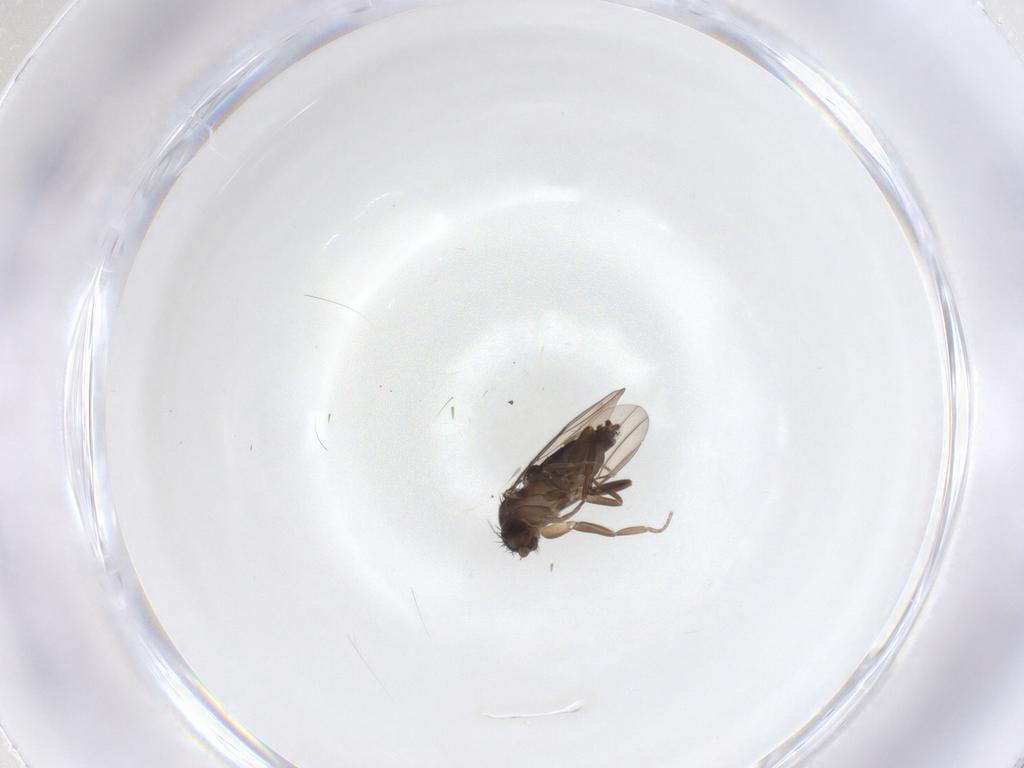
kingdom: Animalia
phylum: Arthropoda
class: Insecta
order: Diptera
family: Phoridae
